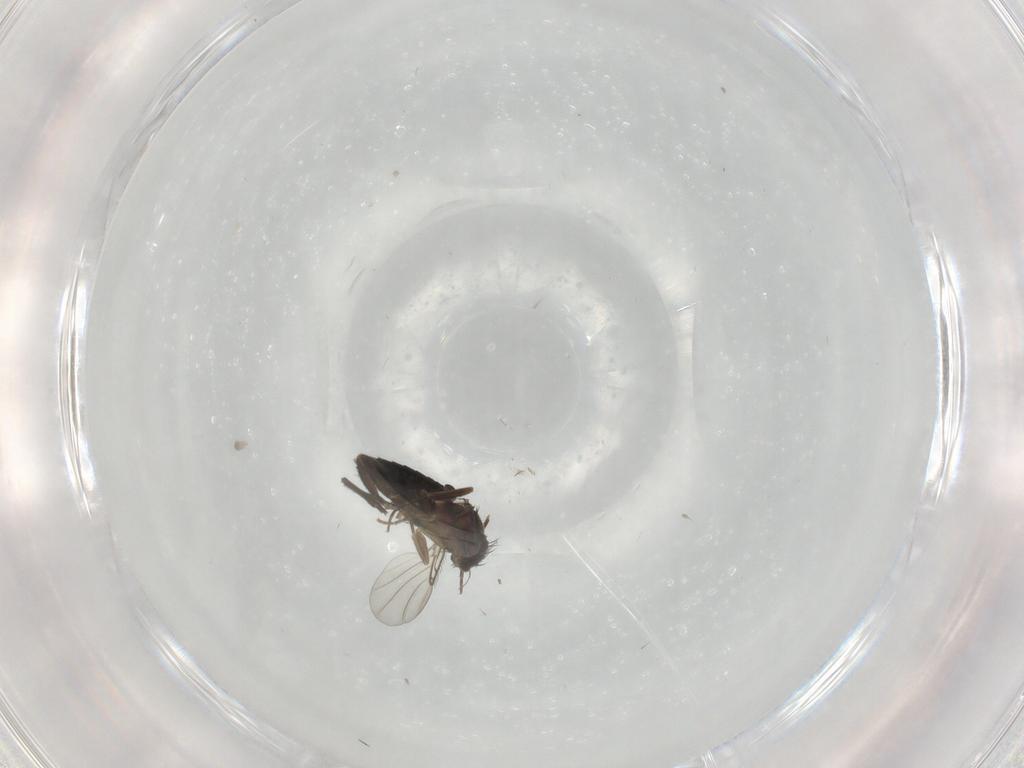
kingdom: Animalia
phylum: Arthropoda
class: Insecta
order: Diptera
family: Phoridae
